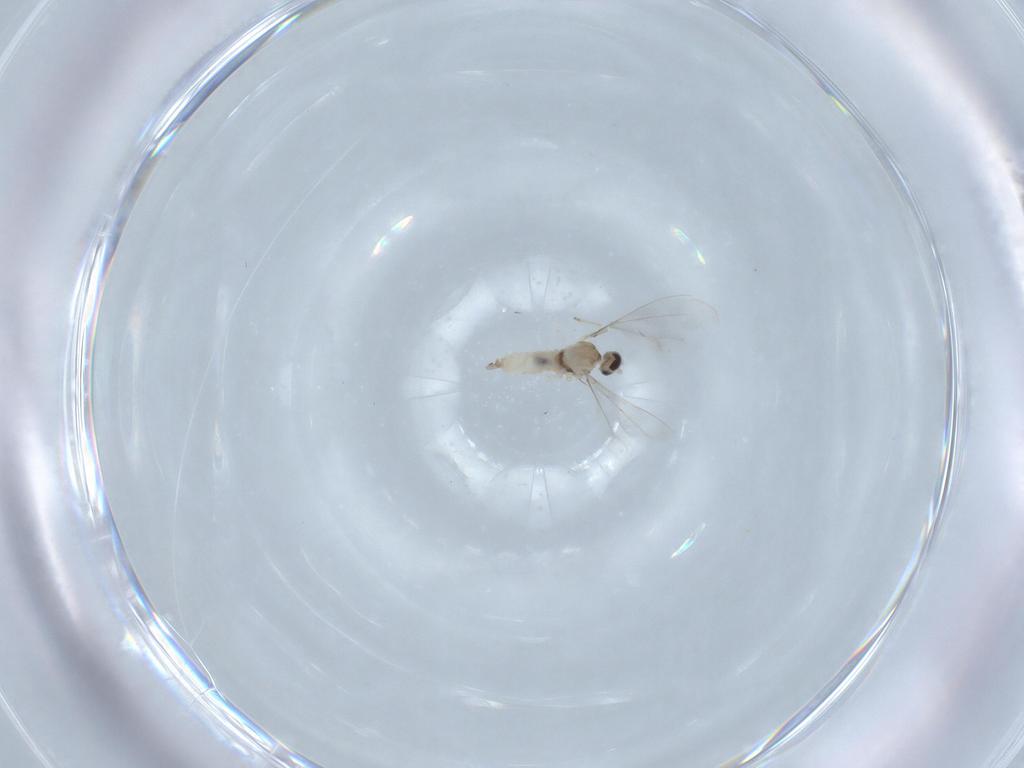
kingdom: Animalia
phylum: Arthropoda
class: Insecta
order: Diptera
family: Cecidomyiidae
